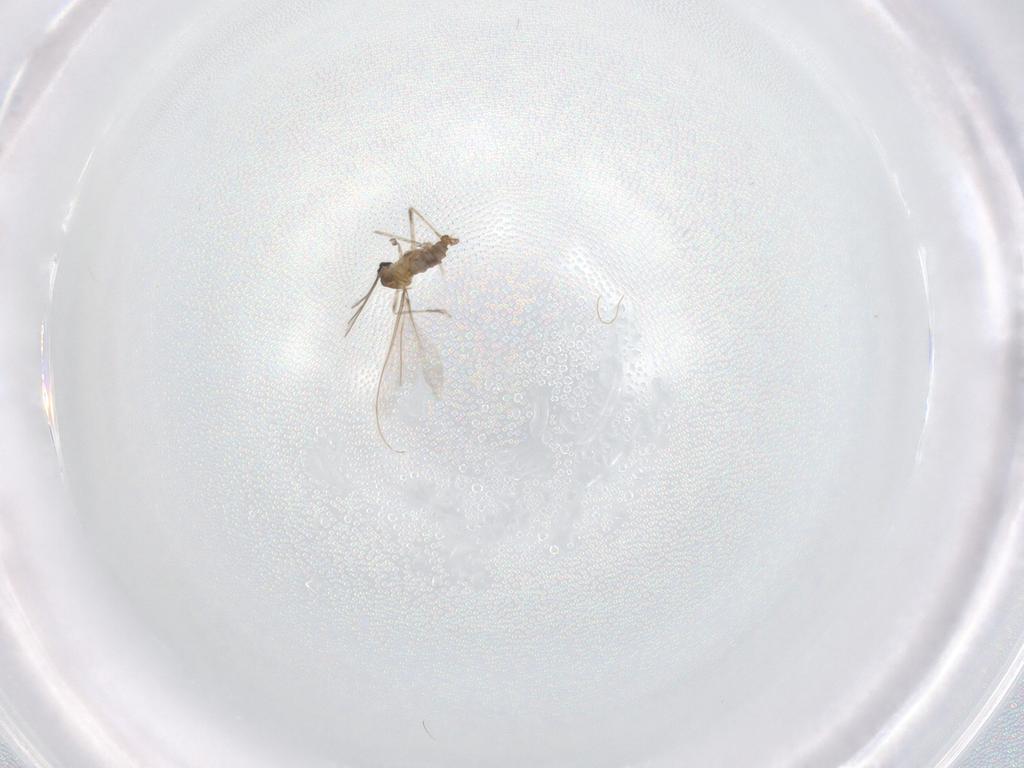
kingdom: Animalia
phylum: Arthropoda
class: Insecta
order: Diptera
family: Cecidomyiidae
